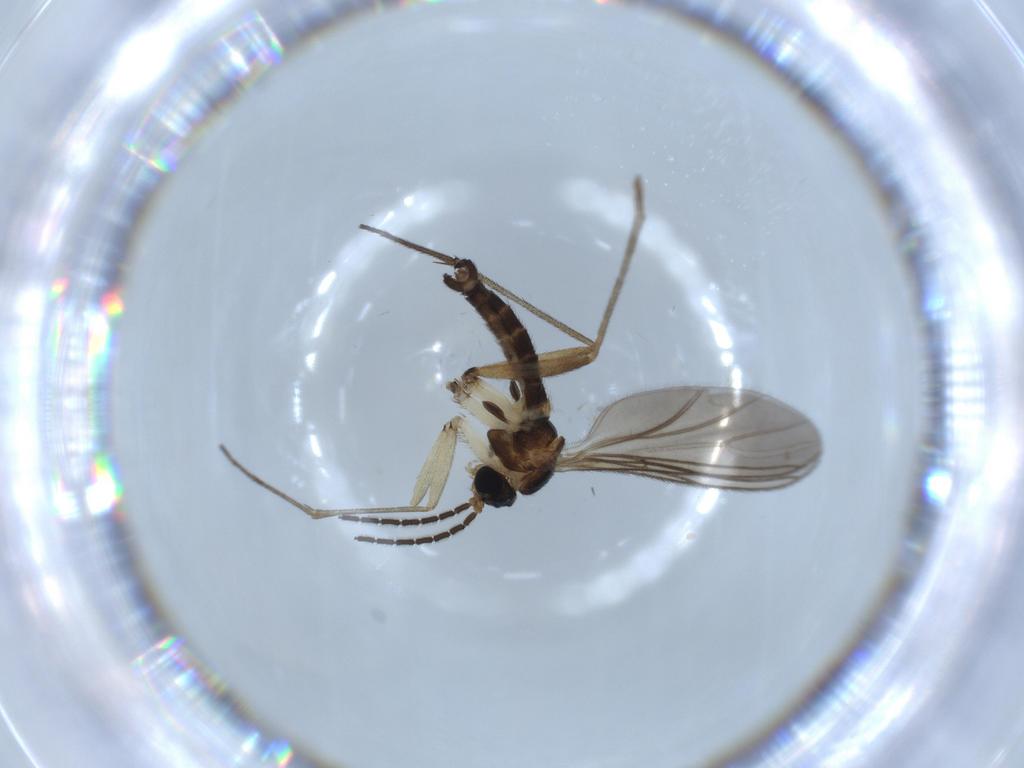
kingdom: Animalia
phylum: Arthropoda
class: Insecta
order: Diptera
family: Sciaridae
